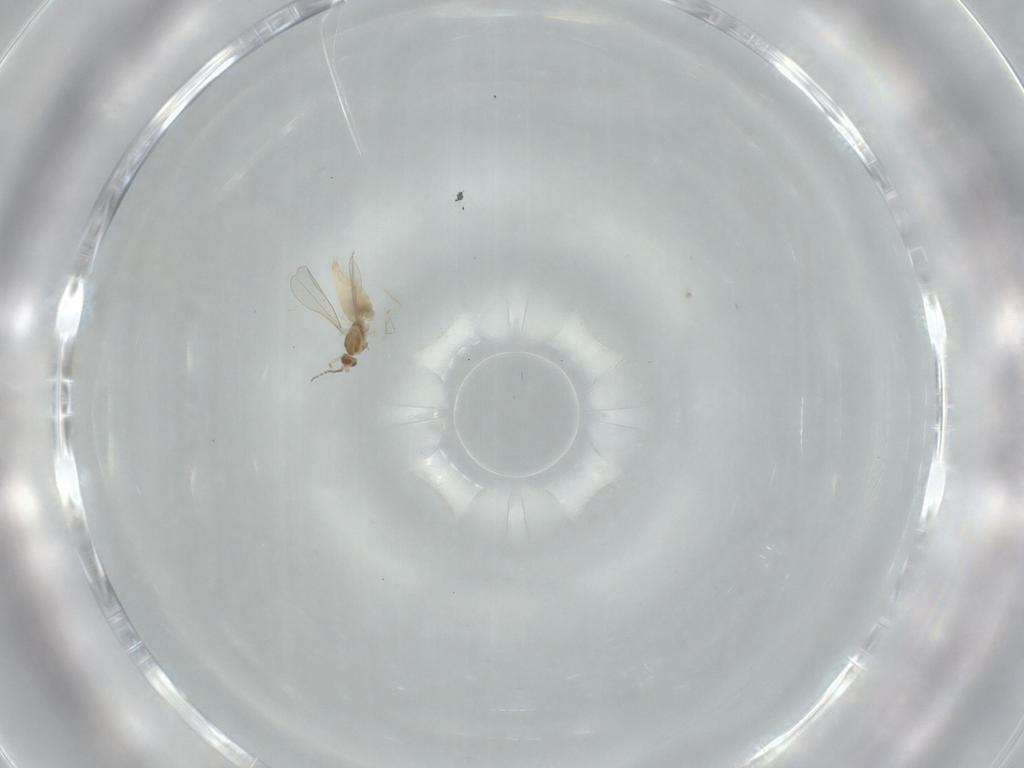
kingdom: Animalia
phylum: Arthropoda
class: Insecta
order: Diptera
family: Cecidomyiidae
